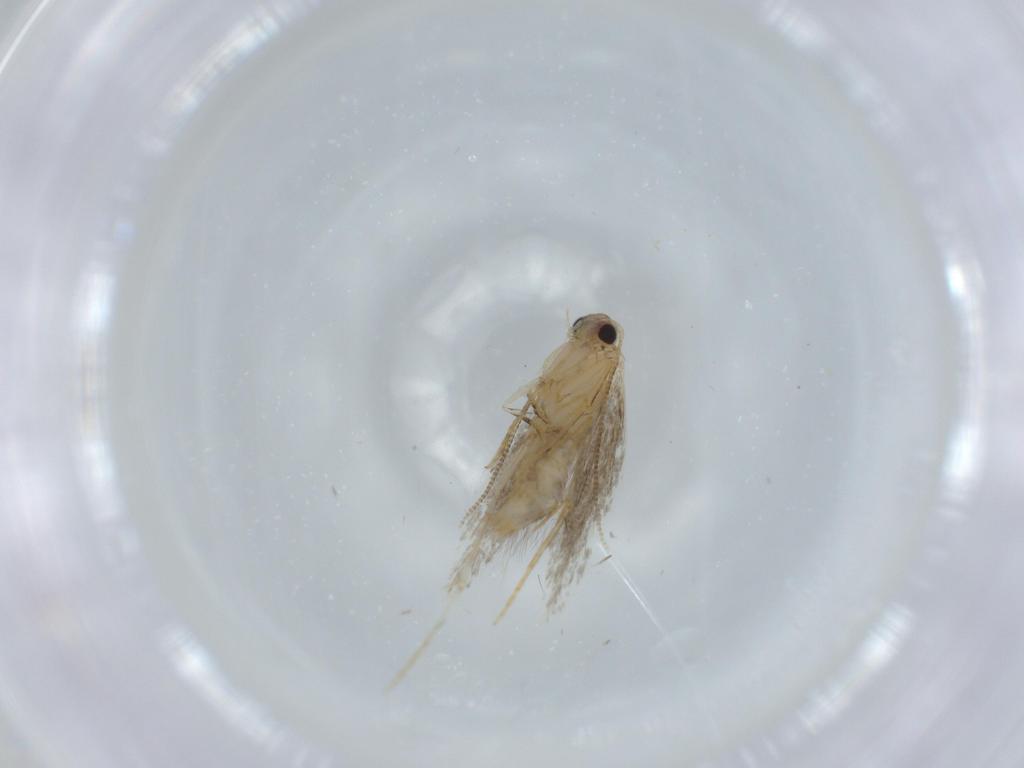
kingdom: Animalia
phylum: Arthropoda
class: Insecta
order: Lepidoptera
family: Tineidae
